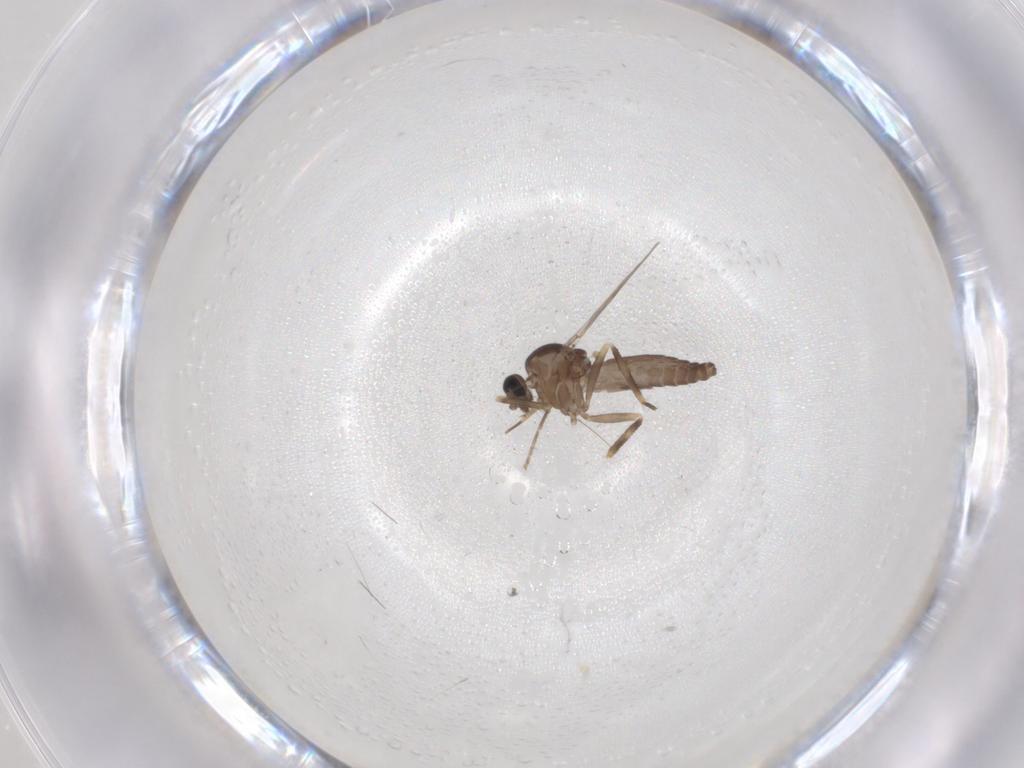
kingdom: Animalia
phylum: Arthropoda
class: Insecta
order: Diptera
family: Ceratopogonidae
